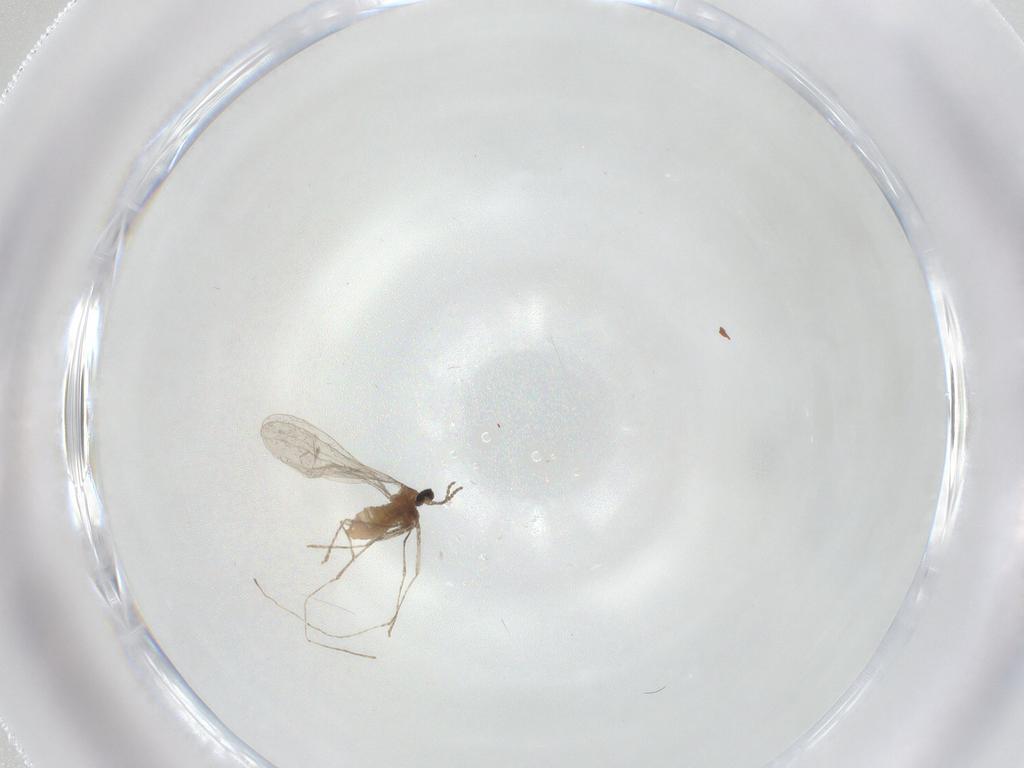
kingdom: Animalia
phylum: Arthropoda
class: Insecta
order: Diptera
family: Cecidomyiidae
